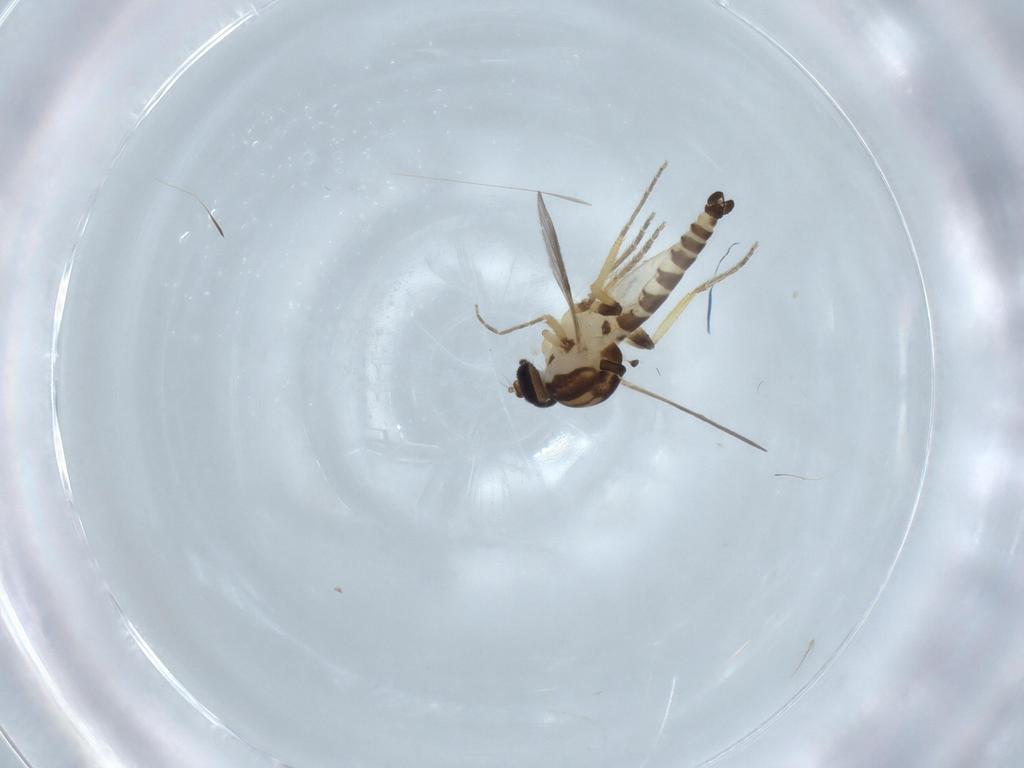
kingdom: Animalia
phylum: Arthropoda
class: Insecta
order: Diptera
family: Ceratopogonidae
